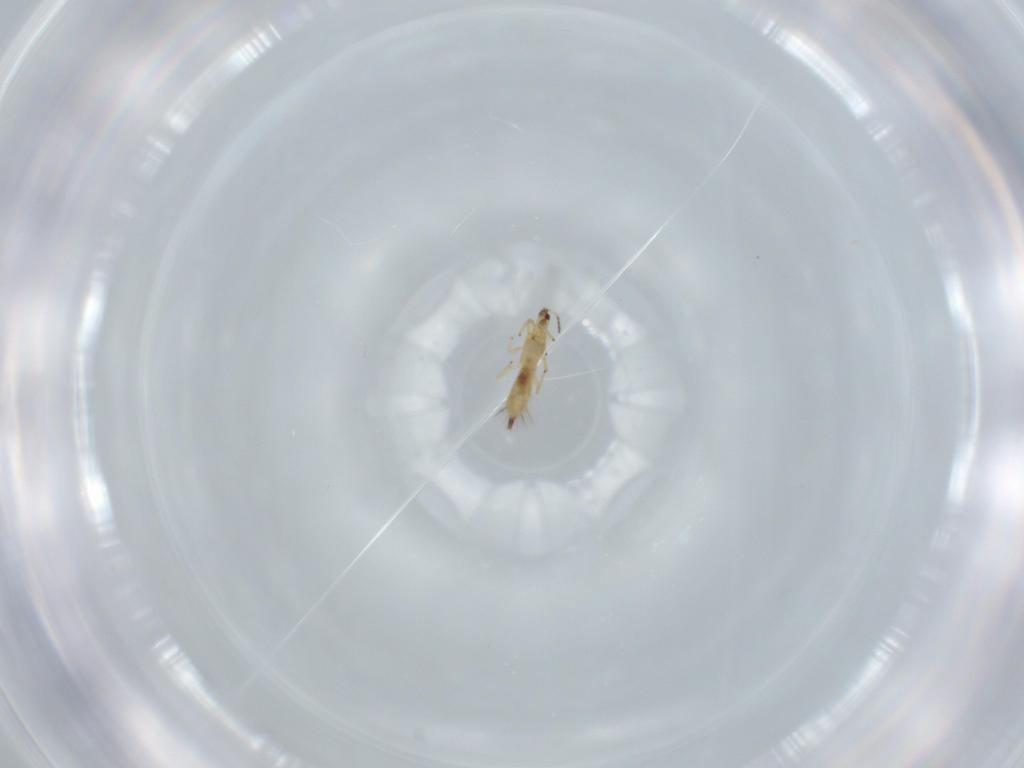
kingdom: Animalia
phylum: Arthropoda
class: Insecta
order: Thysanoptera
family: Phlaeothripidae
